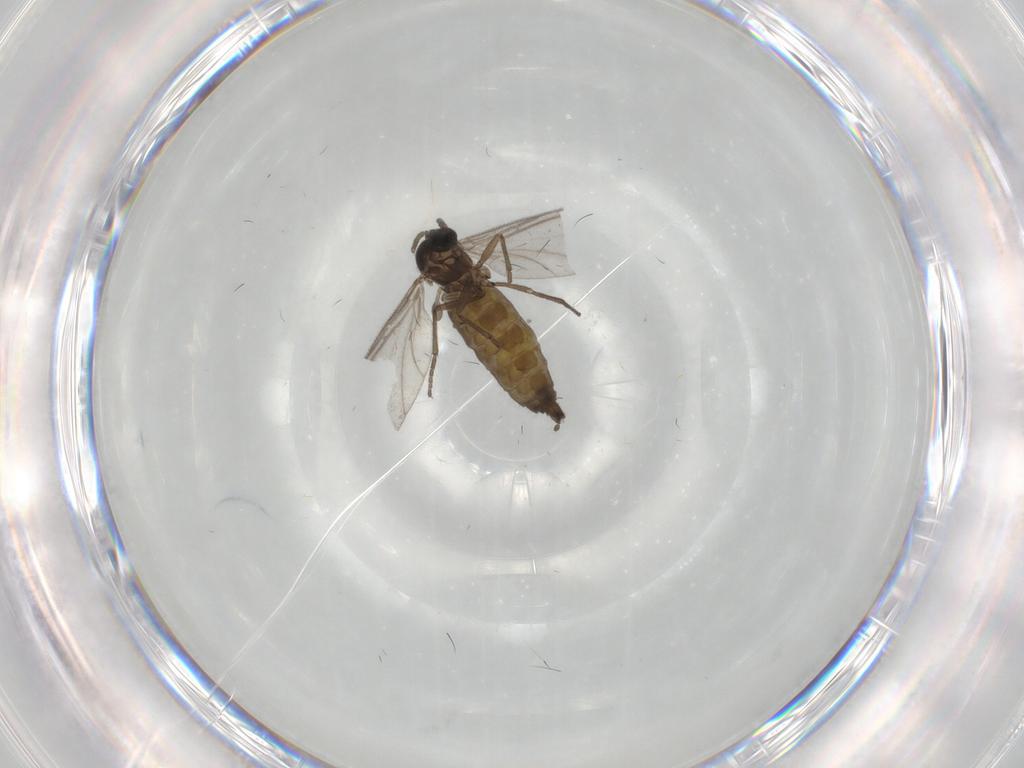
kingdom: Animalia
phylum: Arthropoda
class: Insecta
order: Diptera
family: Sciaridae
